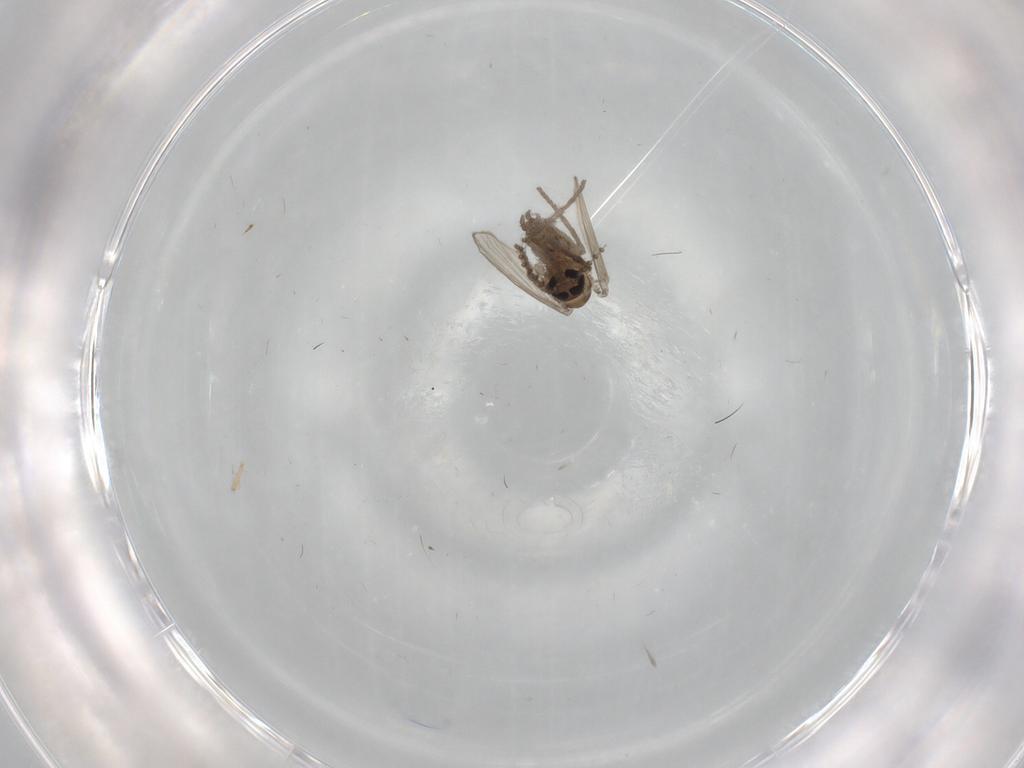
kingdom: Animalia
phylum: Arthropoda
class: Insecta
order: Diptera
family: Psychodidae
